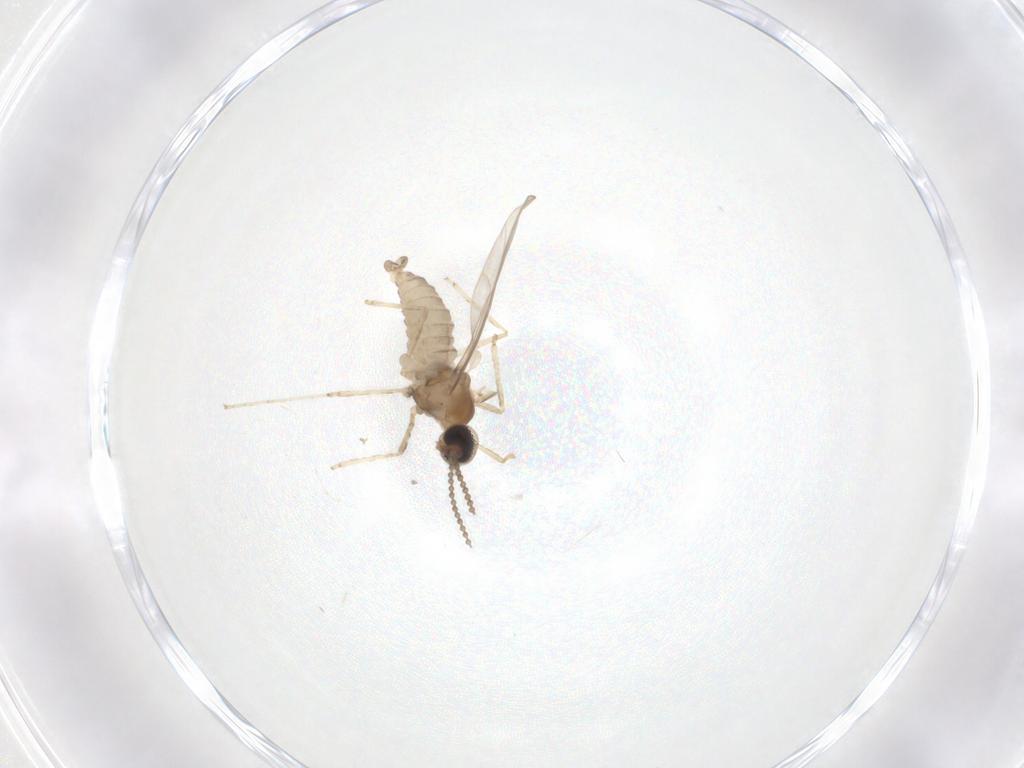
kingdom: Animalia
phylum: Arthropoda
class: Insecta
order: Diptera
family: Cecidomyiidae
